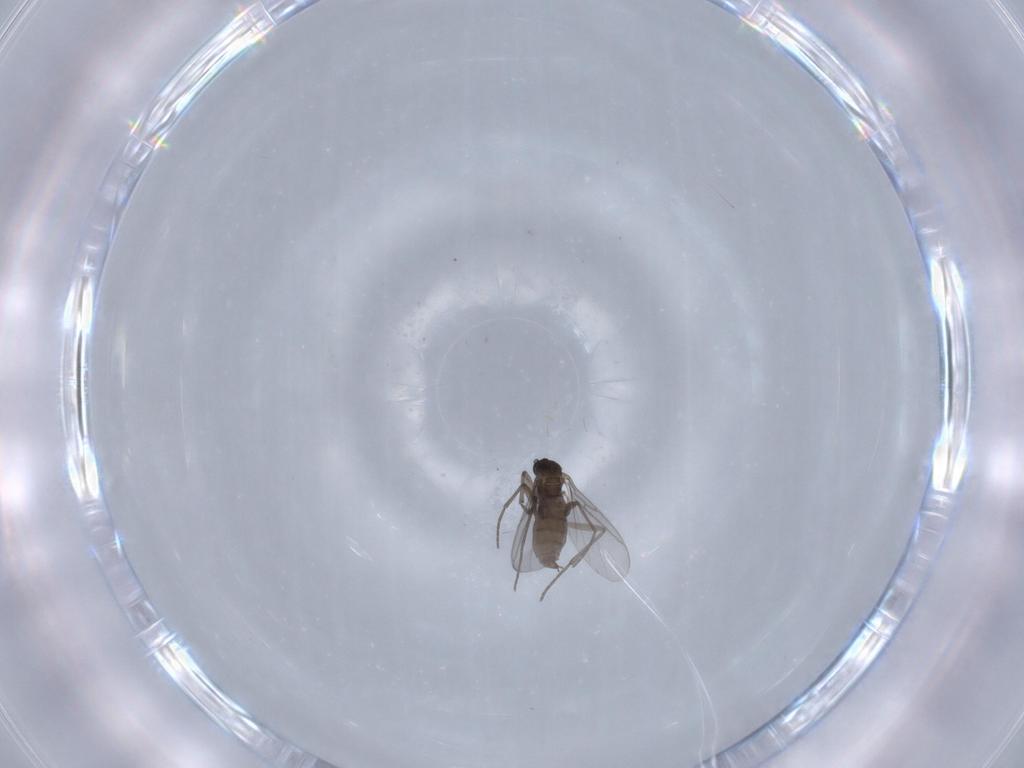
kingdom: Animalia
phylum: Arthropoda
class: Insecta
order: Diptera
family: Sciaridae
